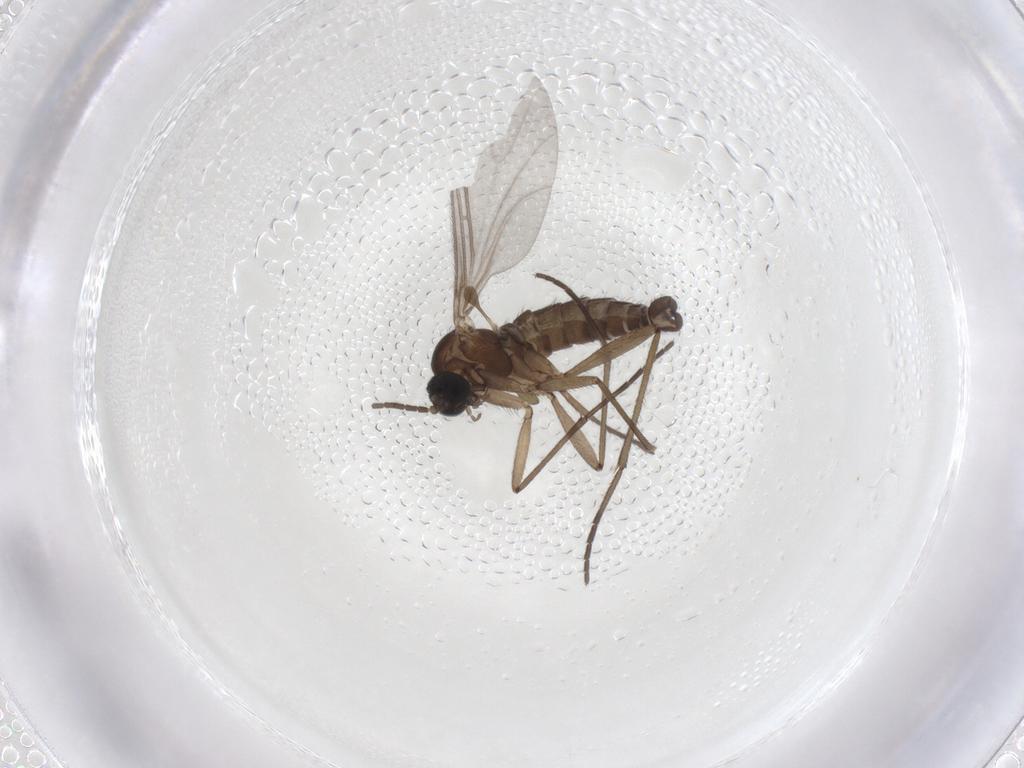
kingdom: Animalia
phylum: Arthropoda
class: Insecta
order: Diptera
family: Sciaridae
